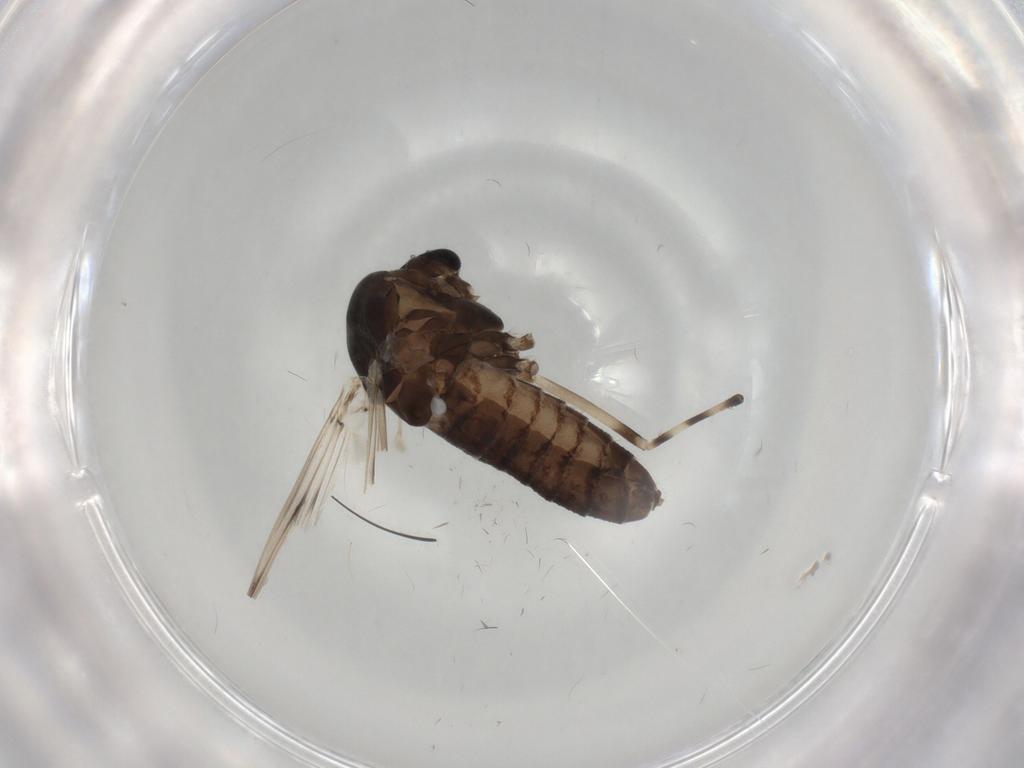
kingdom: Animalia
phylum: Arthropoda
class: Insecta
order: Diptera
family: Chironomidae
